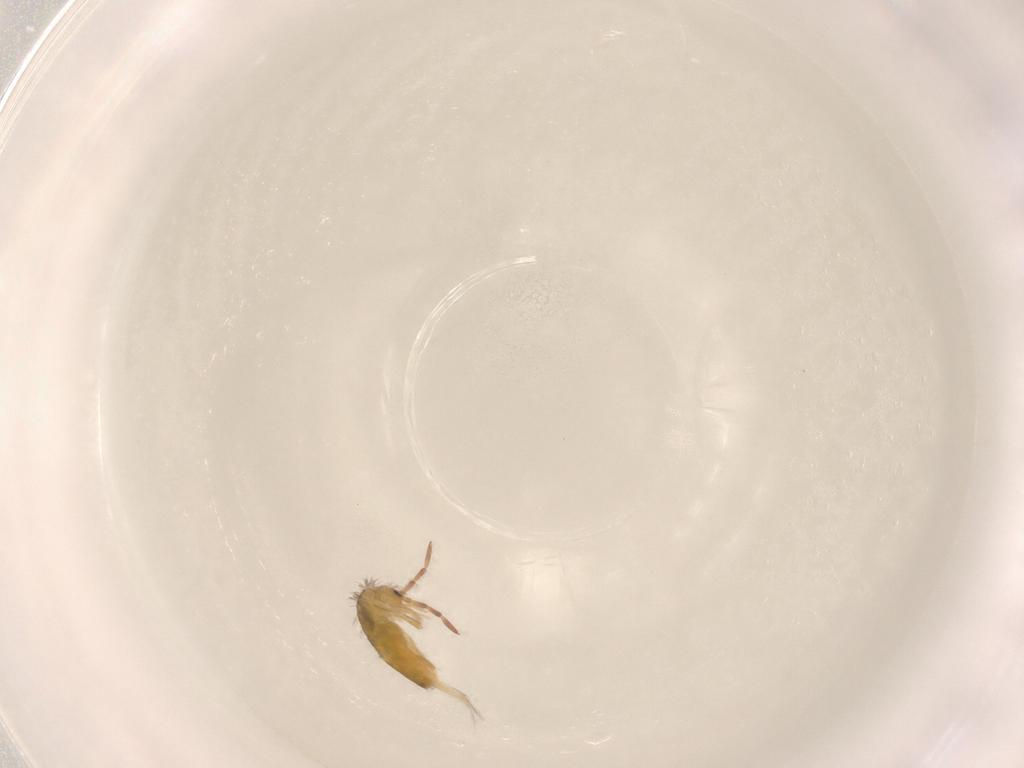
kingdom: Animalia
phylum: Arthropoda
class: Collembola
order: Entomobryomorpha
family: Entomobryidae
